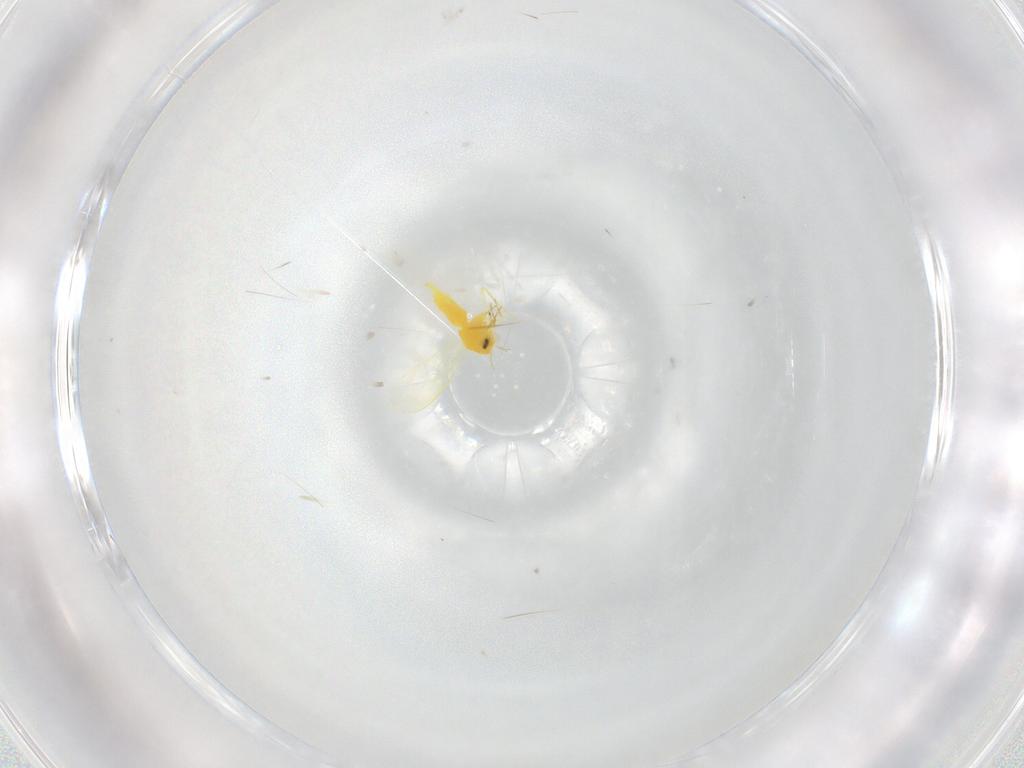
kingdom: Animalia
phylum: Arthropoda
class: Insecta
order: Hemiptera
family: Aleyrodidae
